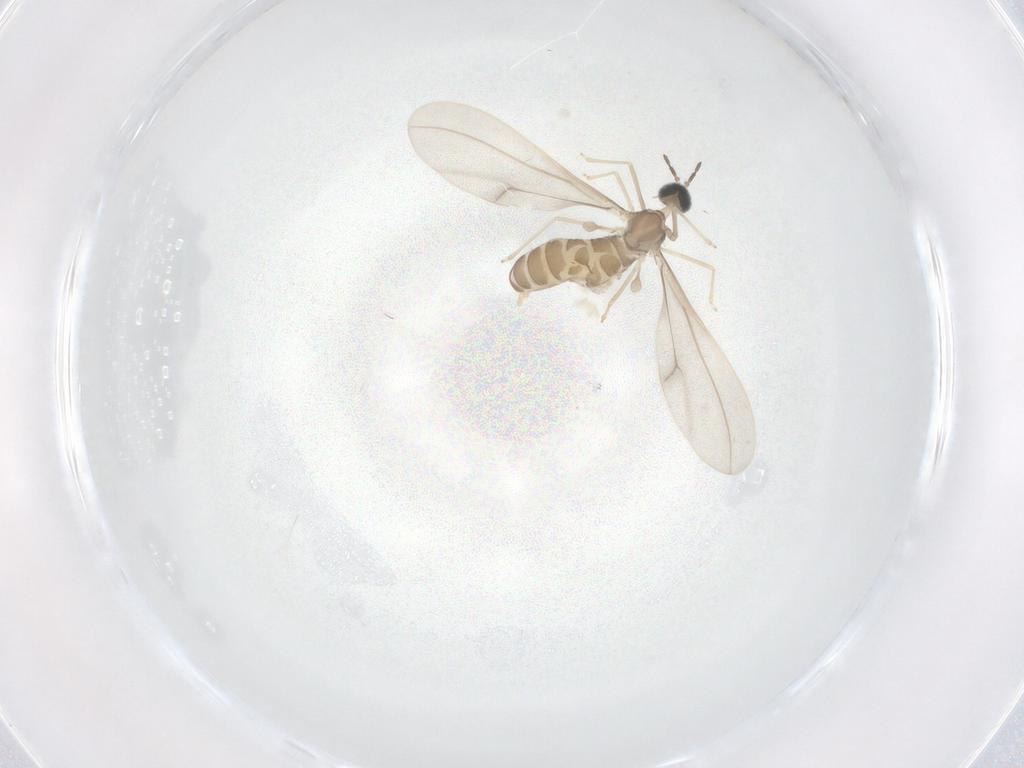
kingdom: Animalia
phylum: Arthropoda
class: Insecta
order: Diptera
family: Cecidomyiidae
